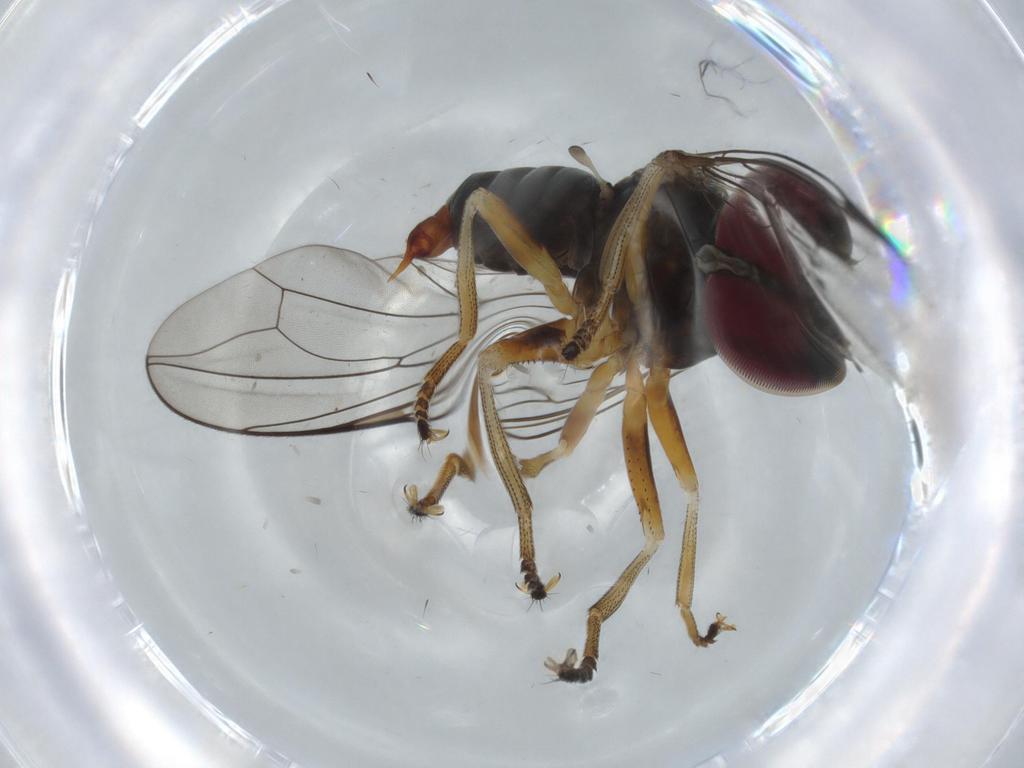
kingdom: Animalia
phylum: Arthropoda
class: Insecta
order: Diptera
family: Pipunculidae
